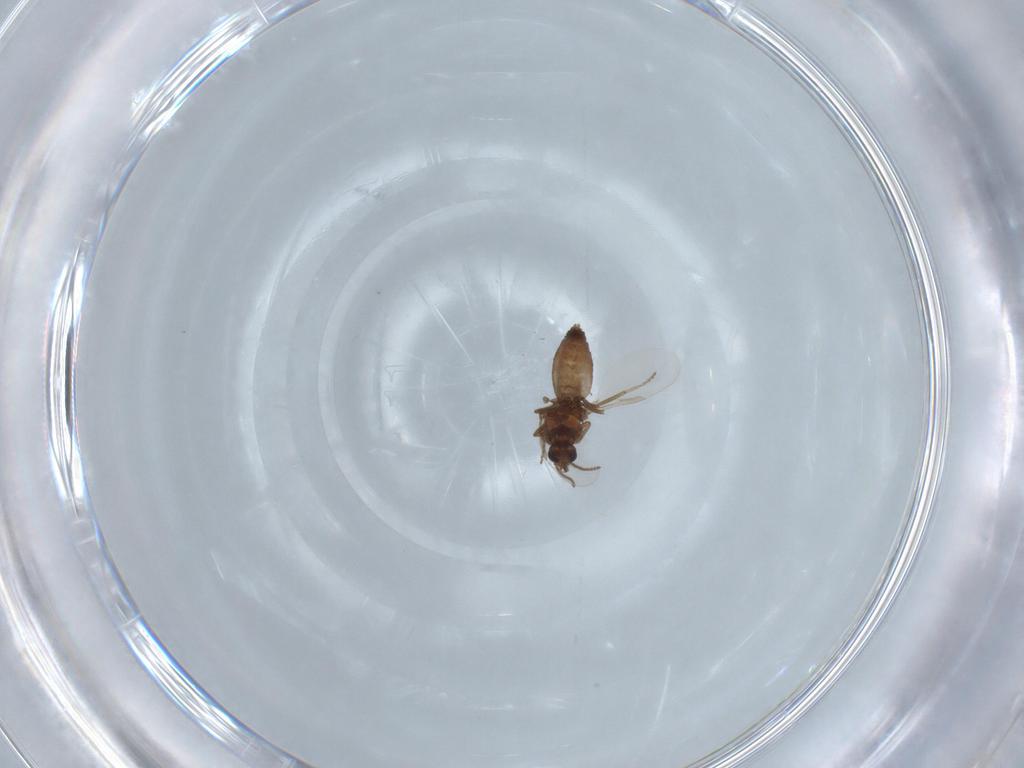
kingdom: Animalia
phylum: Arthropoda
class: Insecta
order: Diptera
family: Ceratopogonidae
